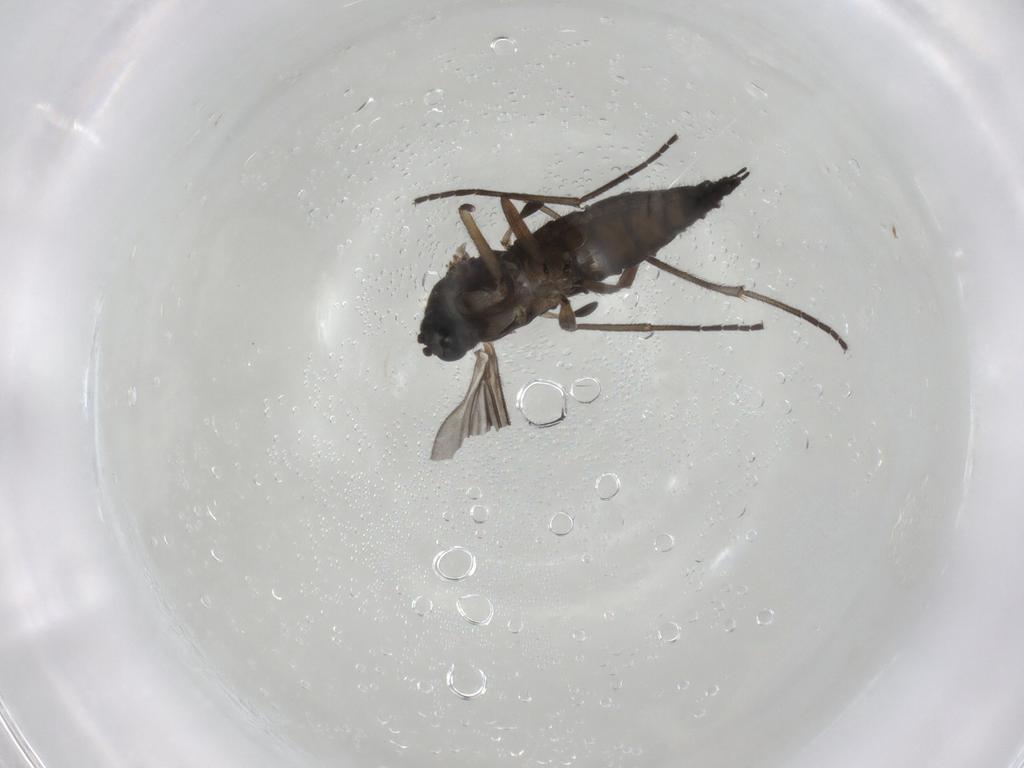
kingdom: Animalia
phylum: Arthropoda
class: Insecta
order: Diptera
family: Sciaridae
